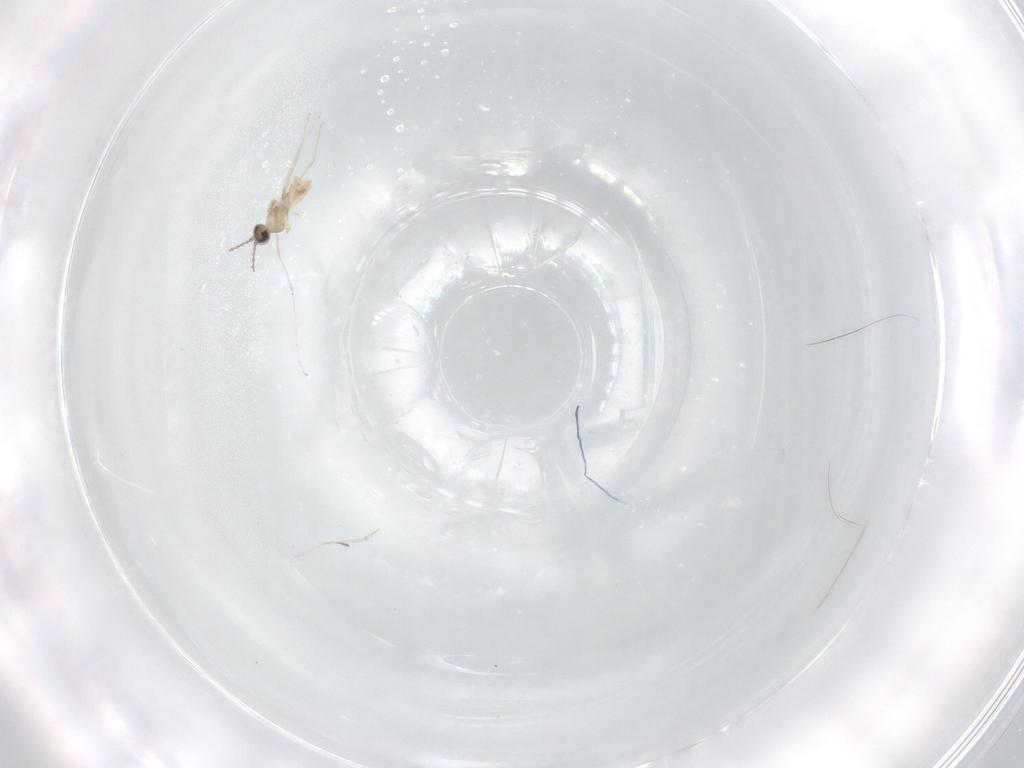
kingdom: Animalia
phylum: Arthropoda
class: Insecta
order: Diptera
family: Cecidomyiidae
